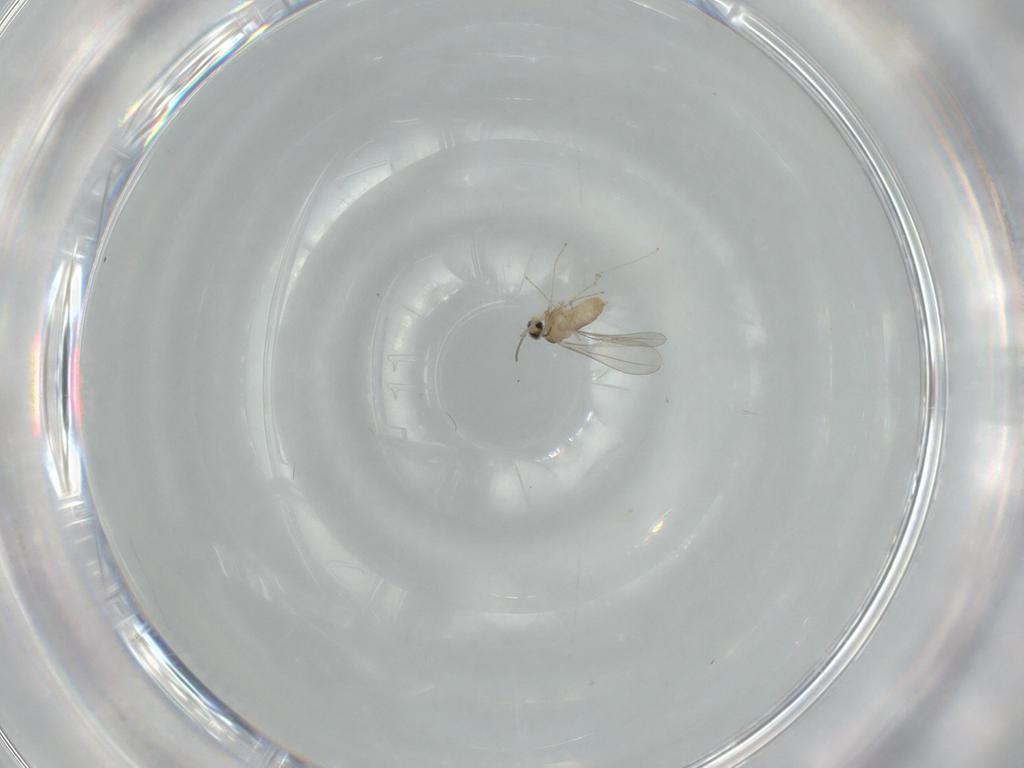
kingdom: Animalia
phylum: Arthropoda
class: Insecta
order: Diptera
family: Cecidomyiidae
